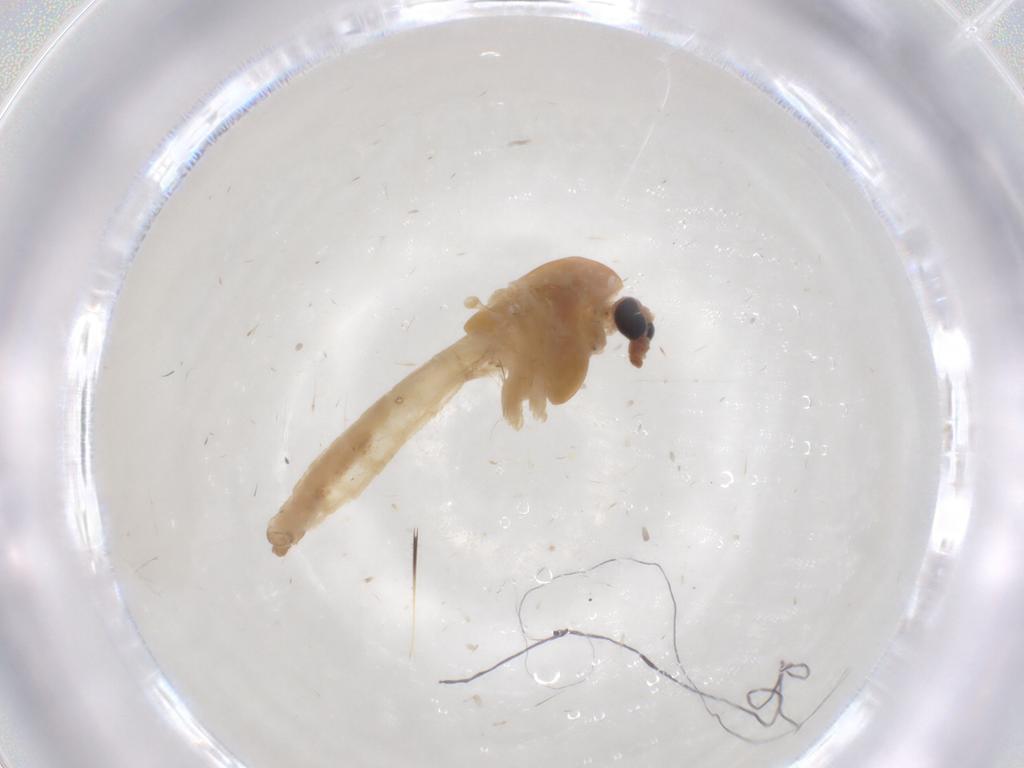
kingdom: Animalia
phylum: Arthropoda
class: Insecta
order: Diptera
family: Chironomidae
